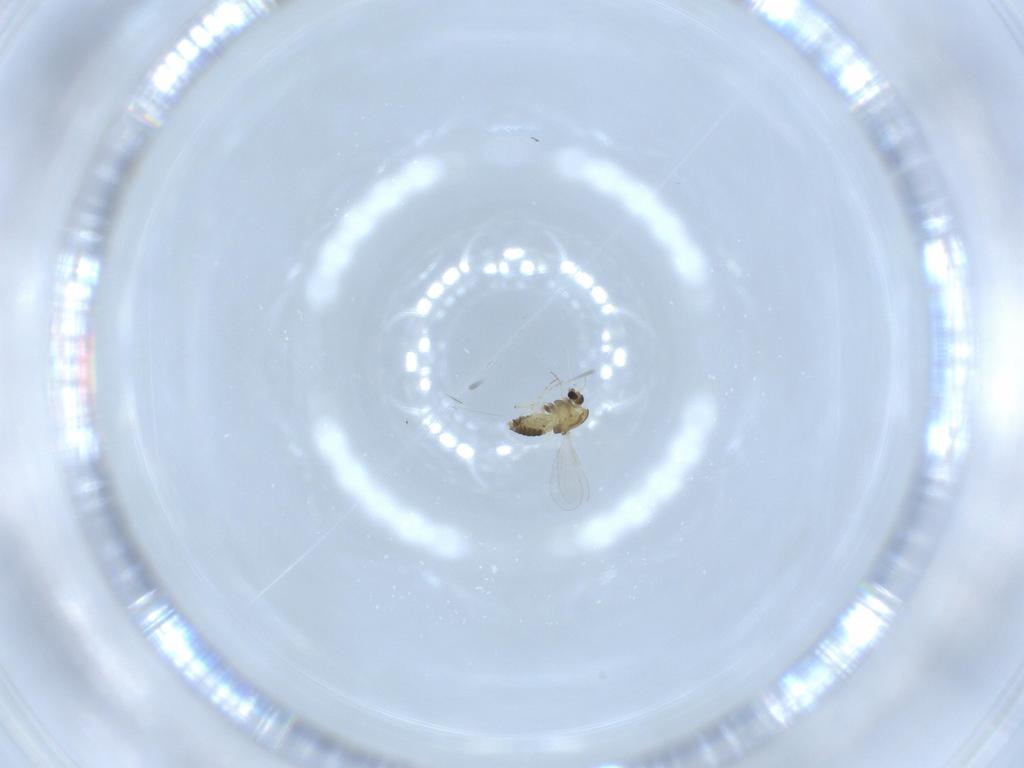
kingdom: Animalia
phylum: Arthropoda
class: Insecta
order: Diptera
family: Chironomidae
